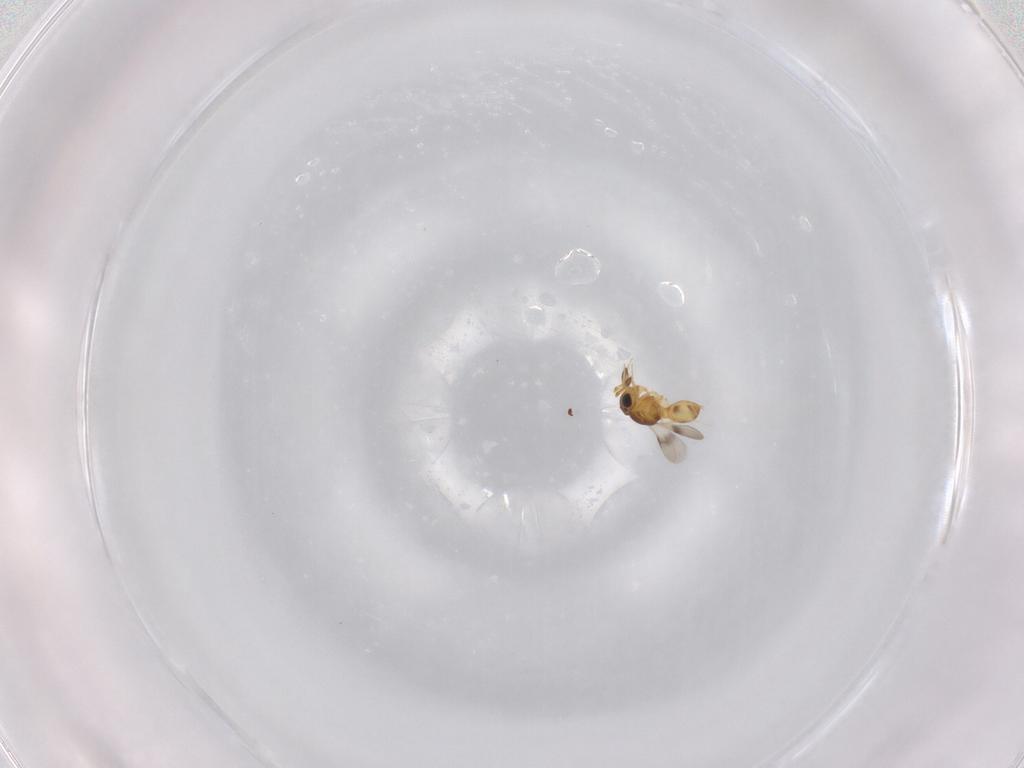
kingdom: Animalia
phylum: Arthropoda
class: Insecta
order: Hymenoptera
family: Scelionidae
